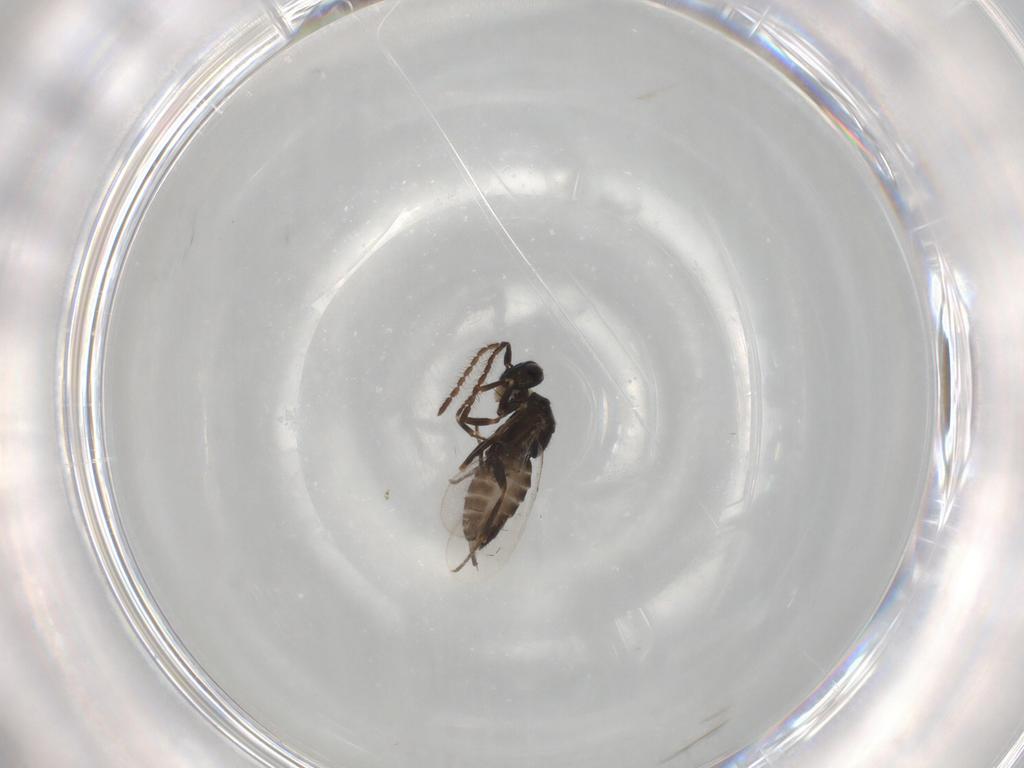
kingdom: Animalia
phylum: Arthropoda
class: Insecta
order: Hymenoptera
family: Encyrtidae
